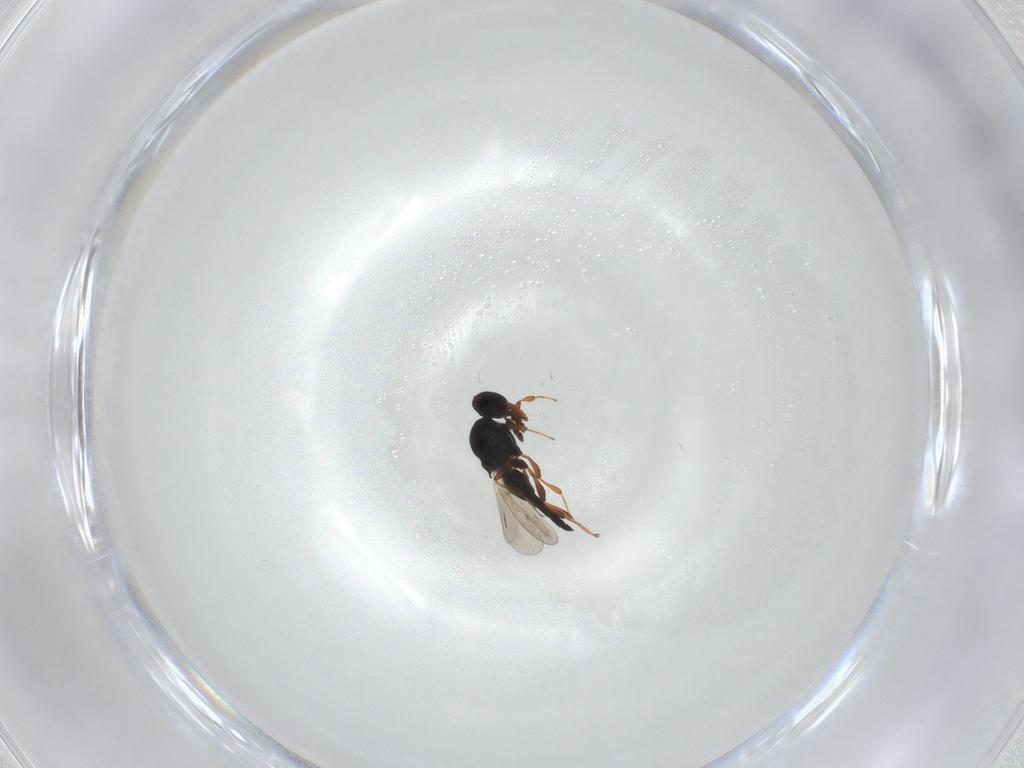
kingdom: Animalia
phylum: Arthropoda
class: Insecta
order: Hymenoptera
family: Platygastridae
